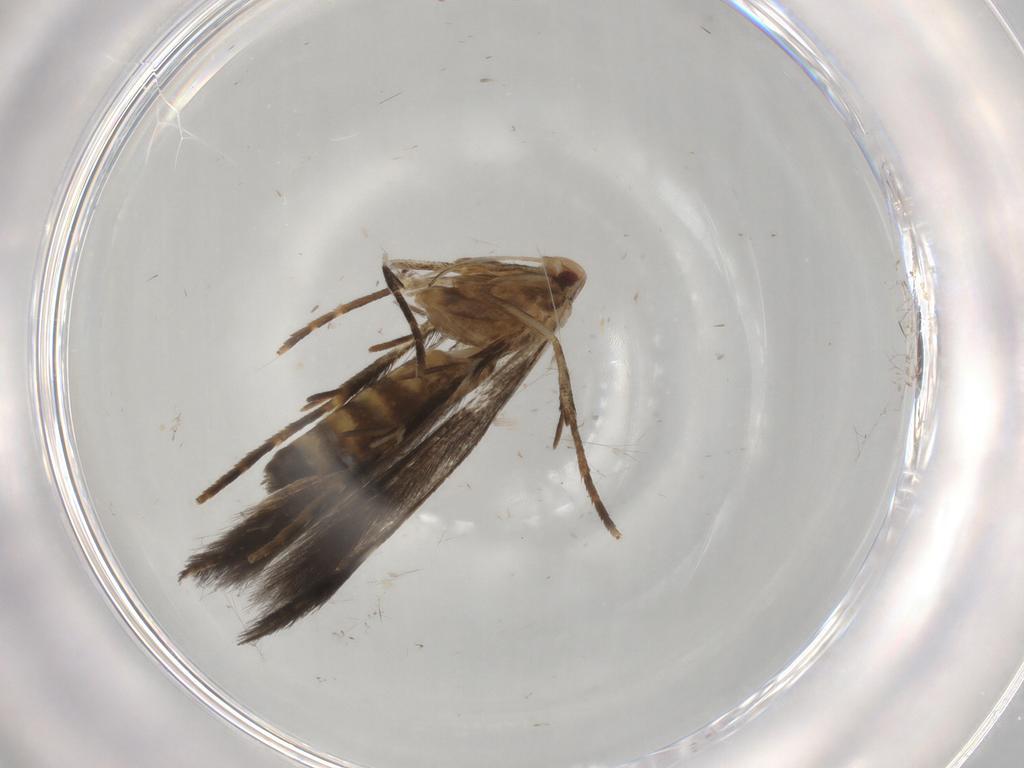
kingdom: Animalia
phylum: Arthropoda
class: Insecta
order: Lepidoptera
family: Cosmopterigidae
